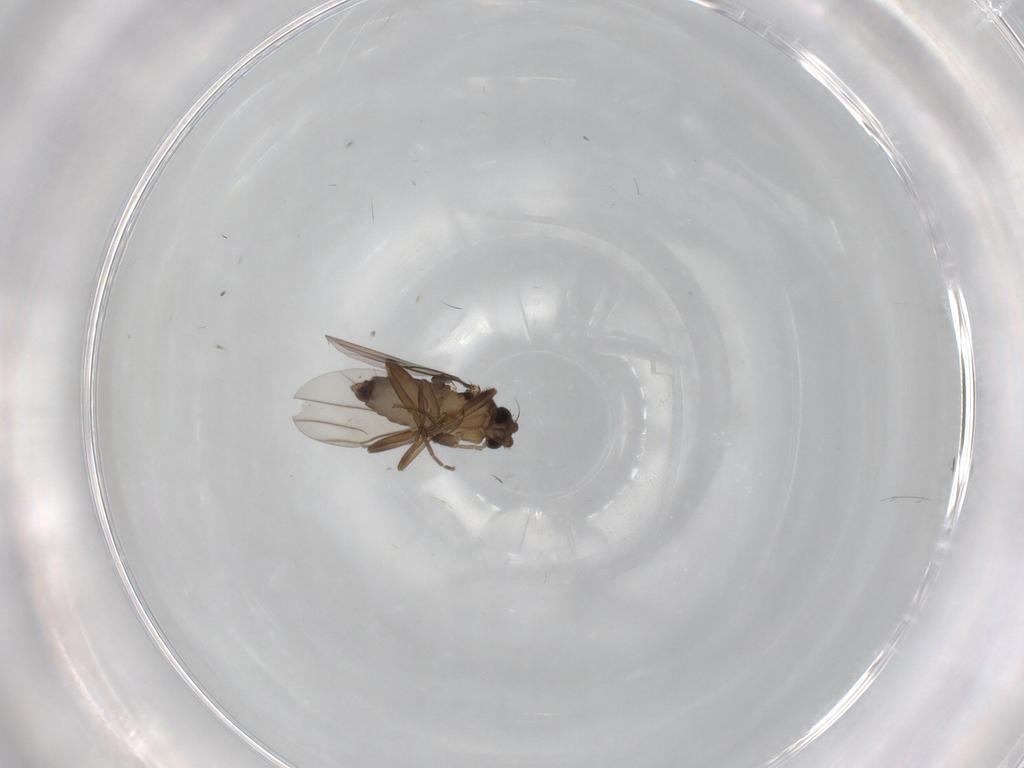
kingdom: Animalia
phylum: Arthropoda
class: Insecta
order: Diptera
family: Phoridae
